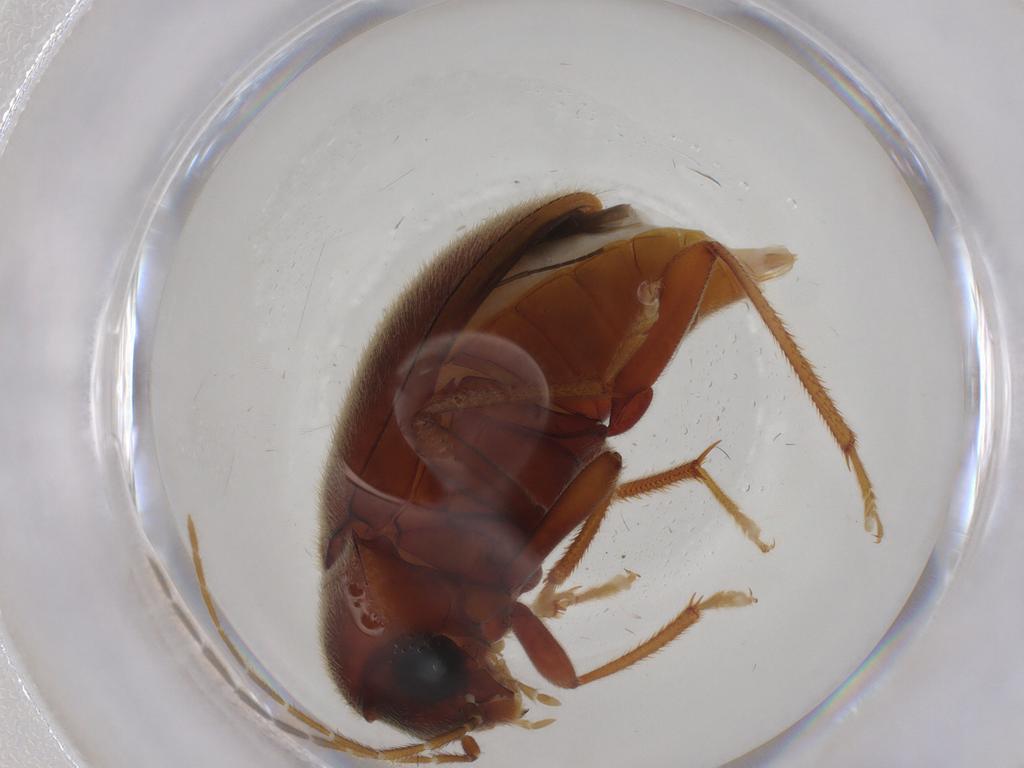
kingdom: Animalia
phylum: Arthropoda
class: Insecta
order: Coleoptera
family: Ptilodactylidae
